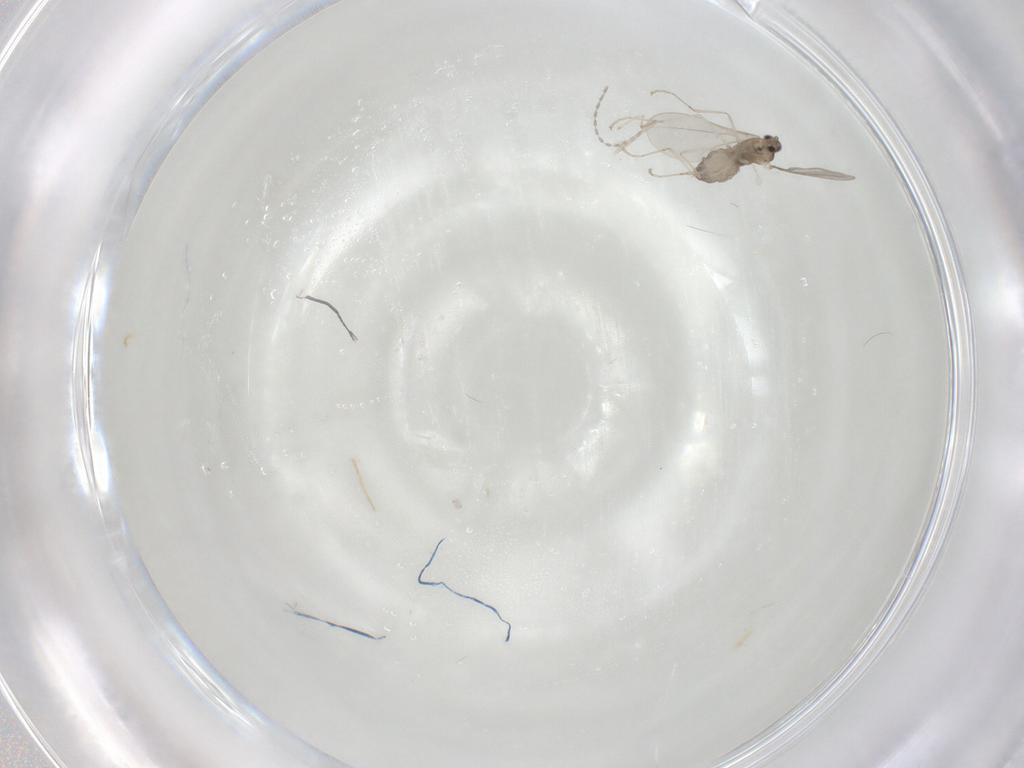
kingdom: Animalia
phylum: Arthropoda
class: Insecta
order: Diptera
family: Cecidomyiidae
